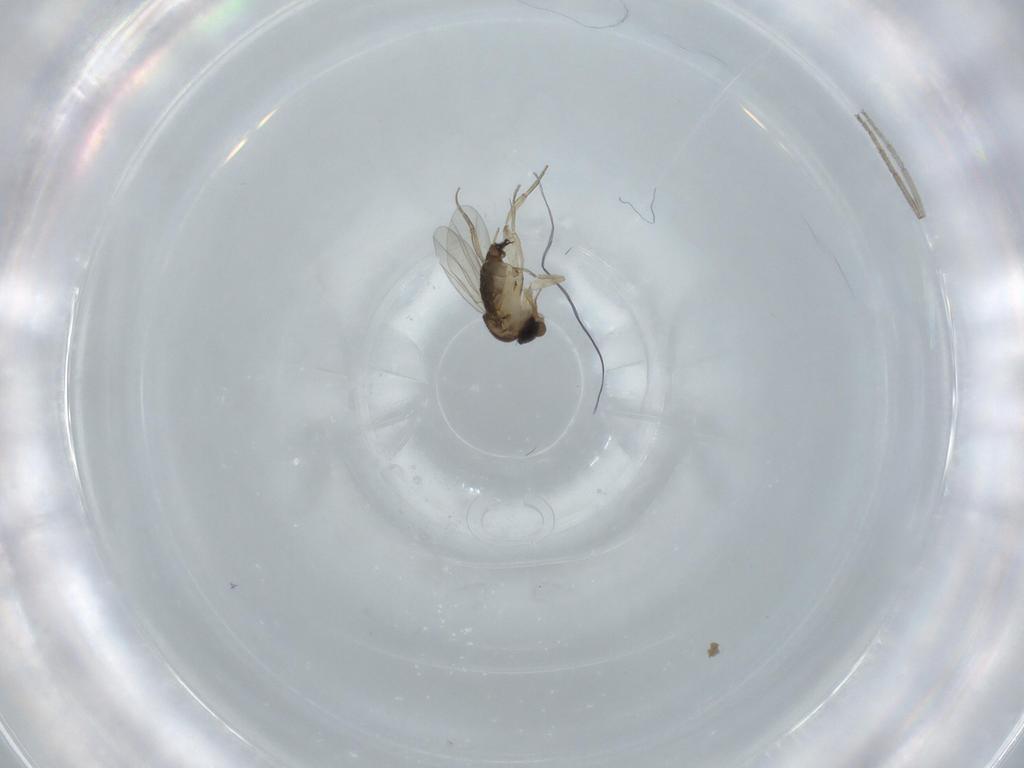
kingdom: Animalia
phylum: Arthropoda
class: Insecta
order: Diptera
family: Phoridae
